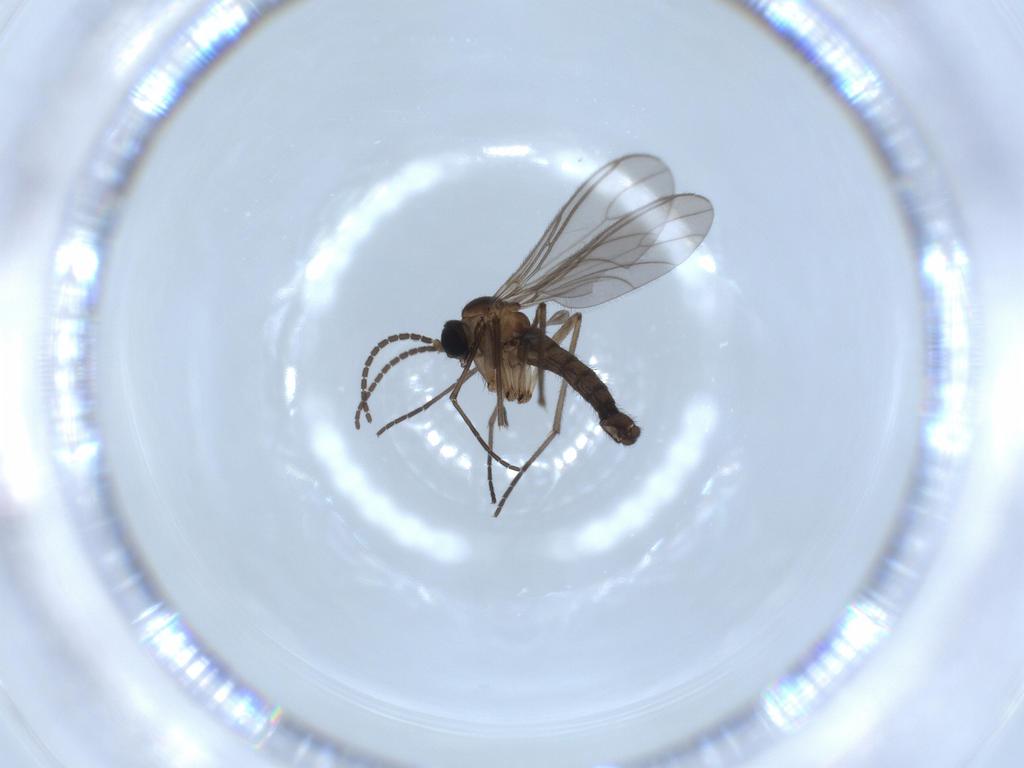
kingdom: Animalia
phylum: Arthropoda
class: Insecta
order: Diptera
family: Sciaridae
